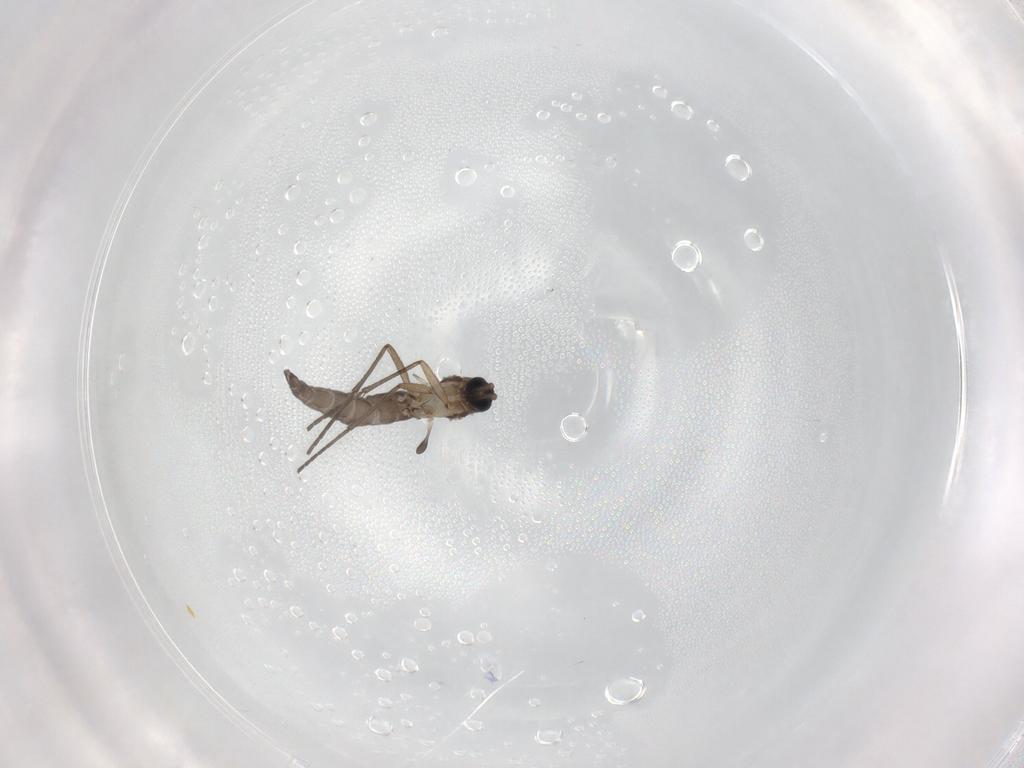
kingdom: Animalia
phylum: Arthropoda
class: Insecta
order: Diptera
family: Sciaridae
